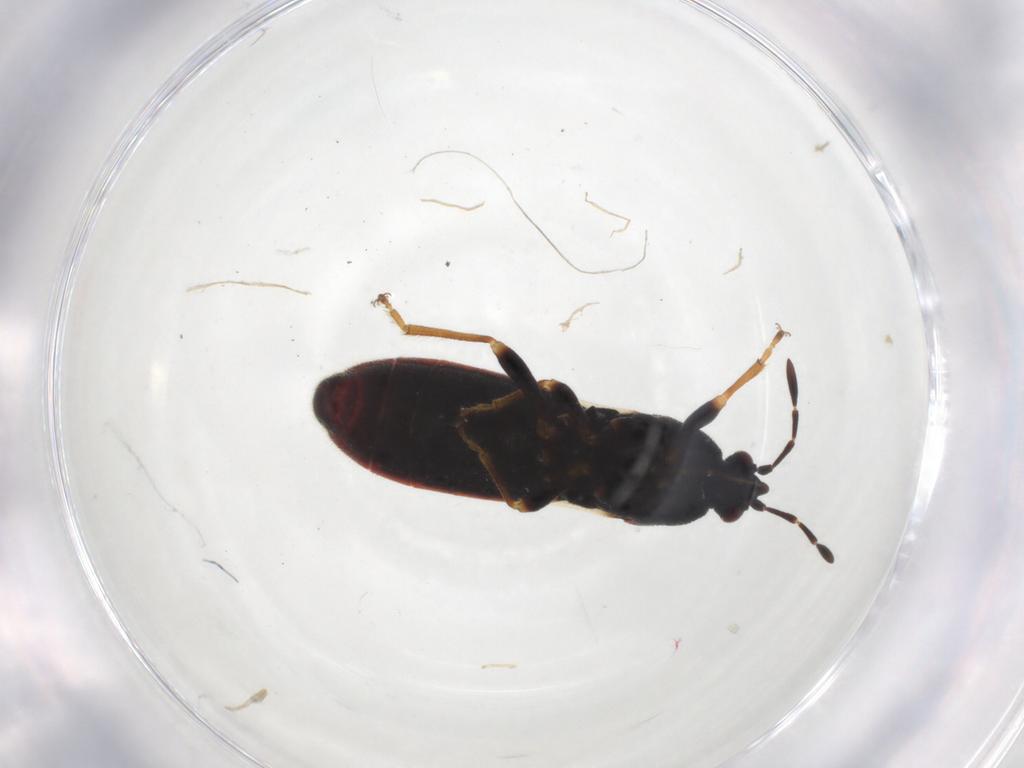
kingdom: Animalia
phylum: Arthropoda
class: Insecta
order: Hemiptera
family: Blissidae
